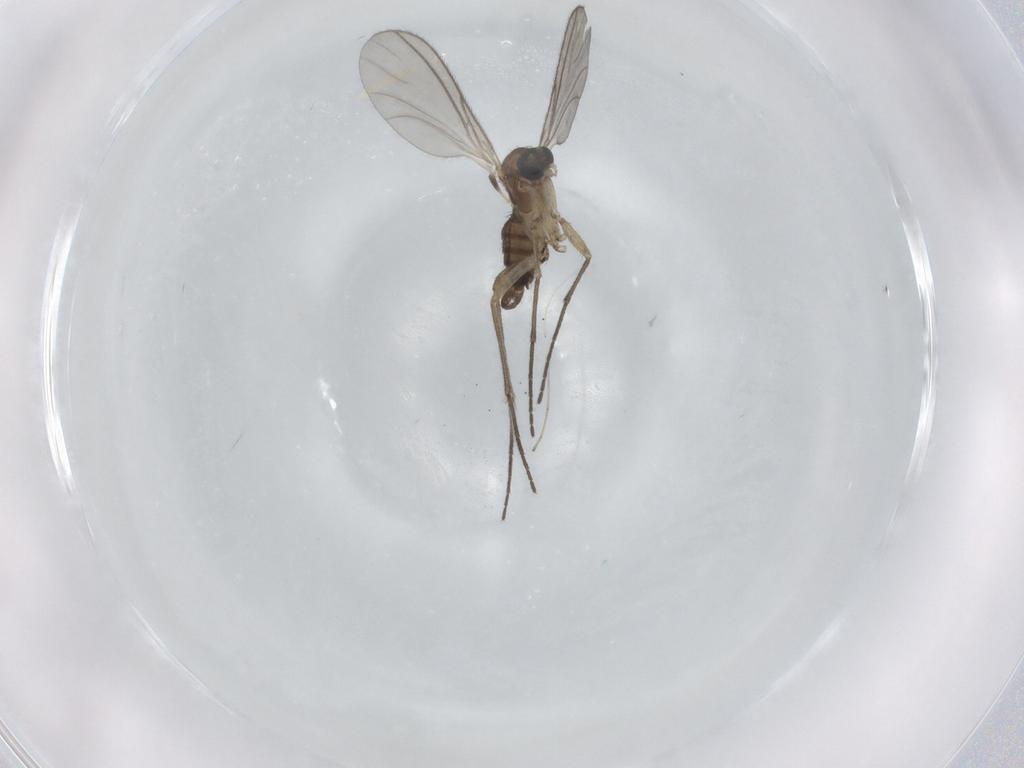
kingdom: Animalia
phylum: Arthropoda
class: Insecta
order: Diptera
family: Sciaridae
